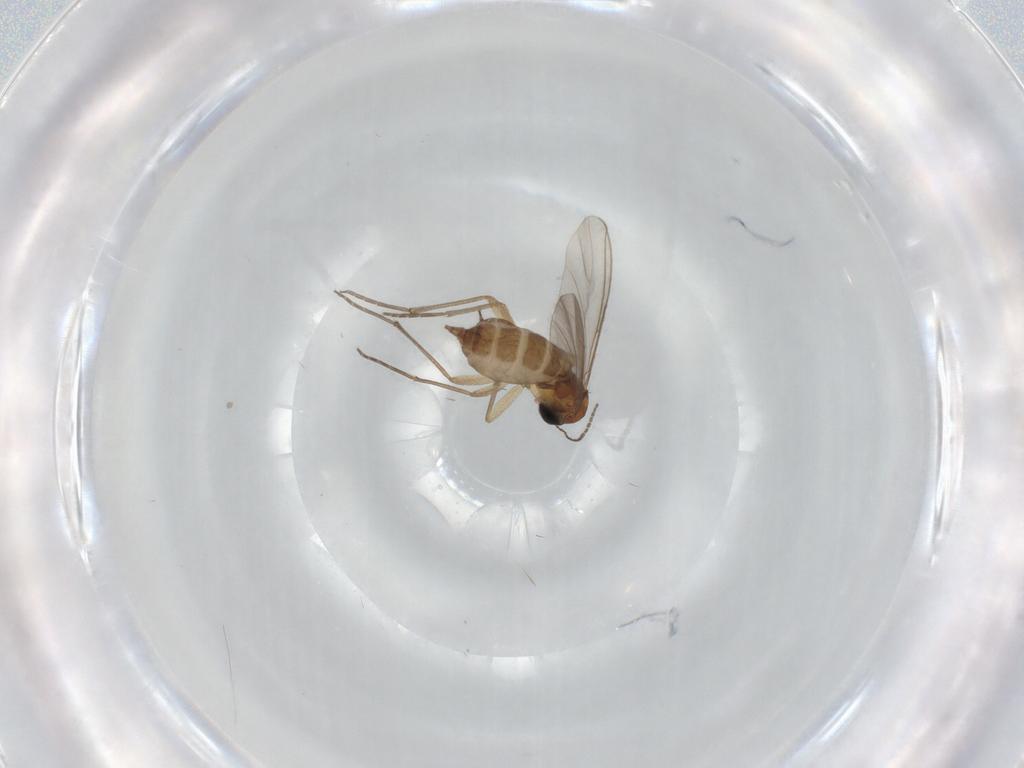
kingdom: Animalia
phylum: Arthropoda
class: Insecta
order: Diptera
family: Sciaridae
